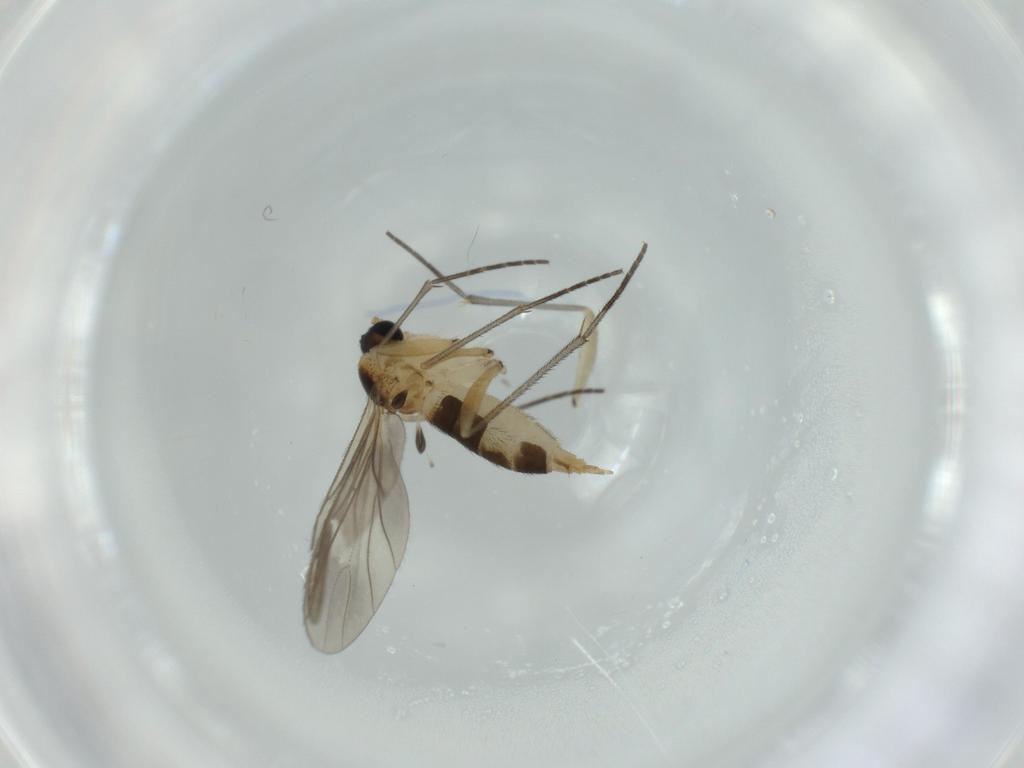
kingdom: Animalia
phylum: Arthropoda
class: Insecta
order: Diptera
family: Sciaridae
